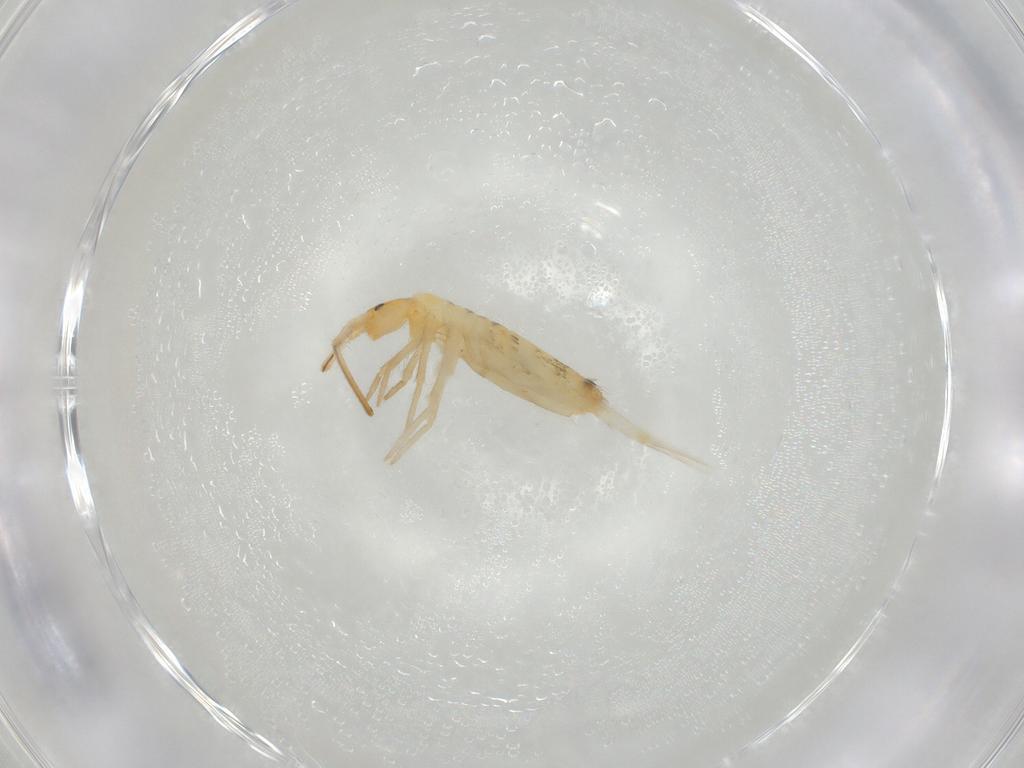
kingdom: Animalia
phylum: Arthropoda
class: Collembola
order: Entomobryomorpha
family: Entomobryidae
